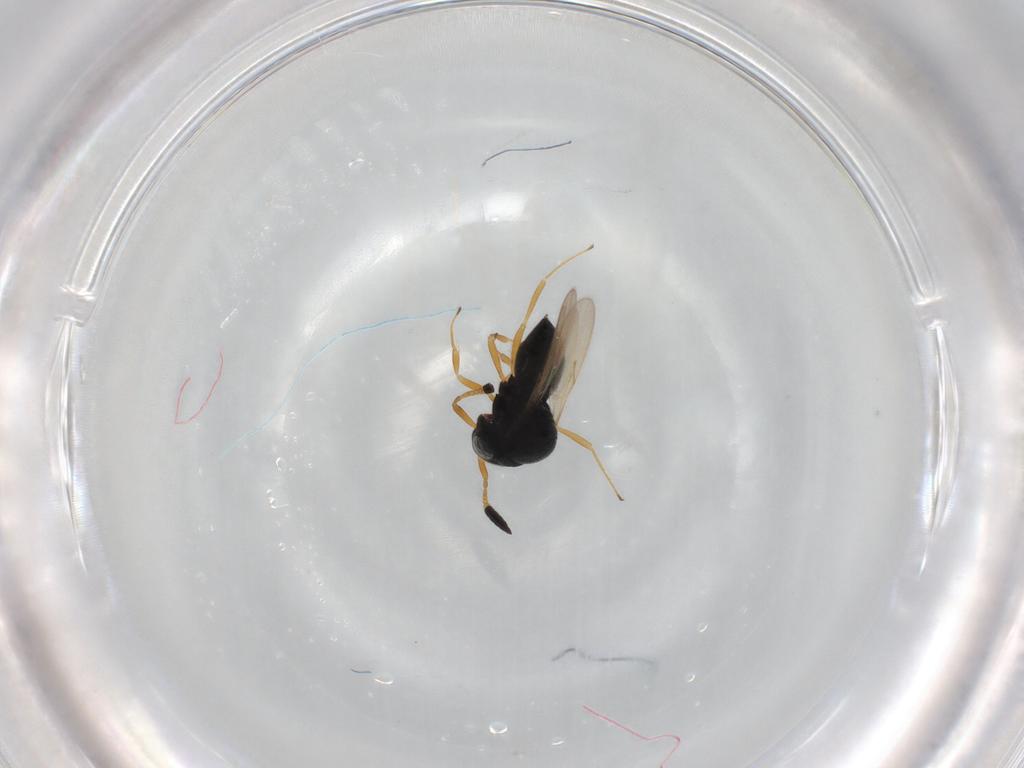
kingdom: Animalia
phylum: Arthropoda
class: Insecta
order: Hymenoptera
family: Scelionidae
